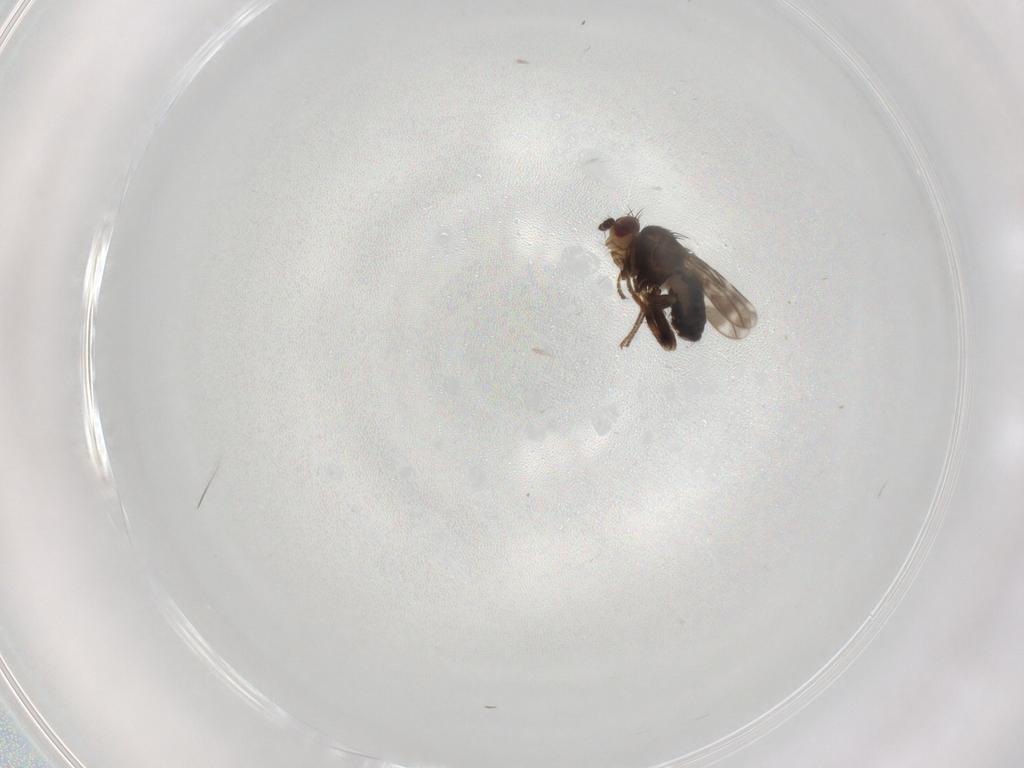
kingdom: Animalia
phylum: Arthropoda
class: Insecta
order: Diptera
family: Sphaeroceridae
